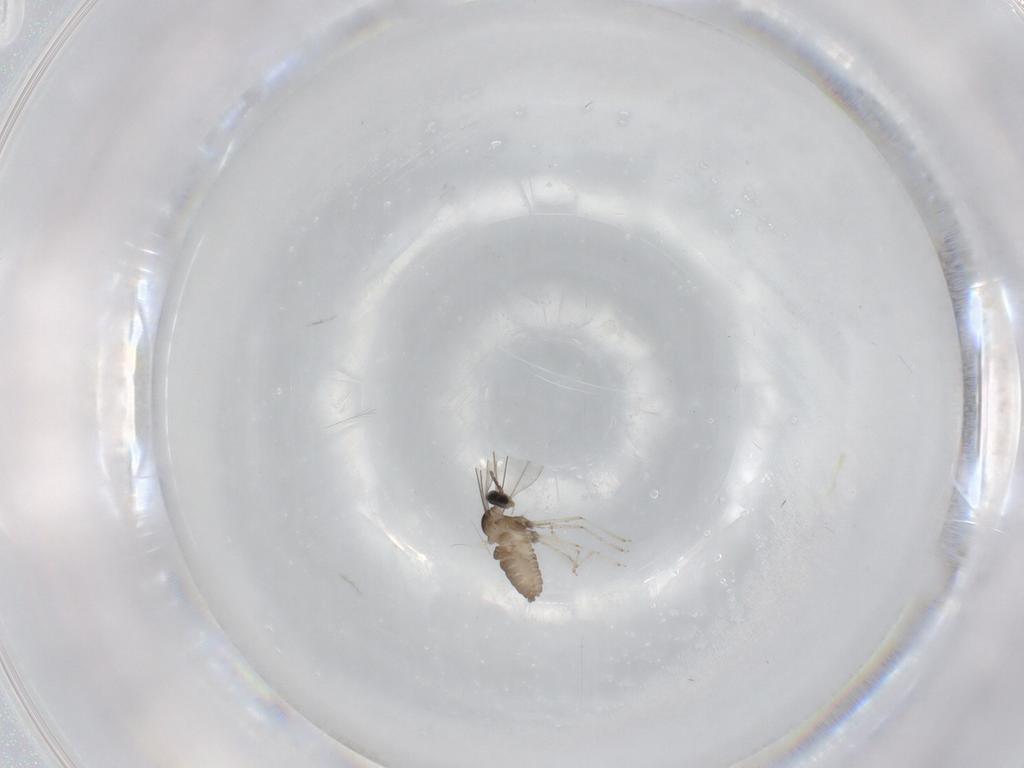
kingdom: Animalia
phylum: Arthropoda
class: Insecta
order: Diptera
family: Cecidomyiidae
